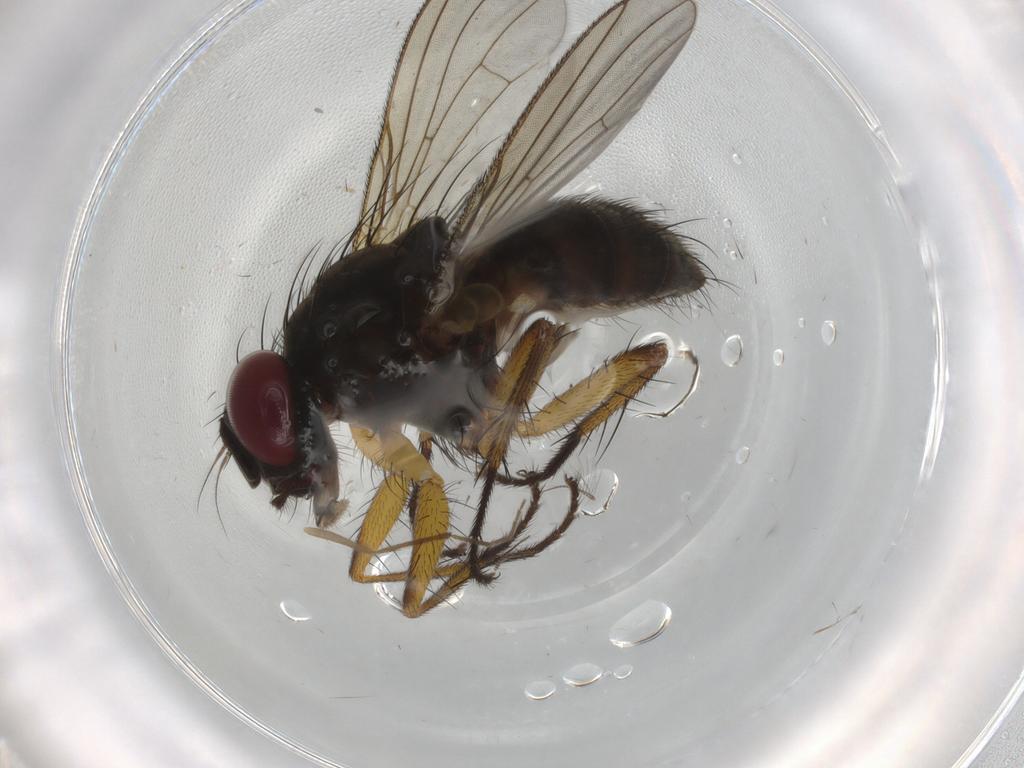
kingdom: Animalia
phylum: Arthropoda
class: Insecta
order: Diptera
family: Muscidae
